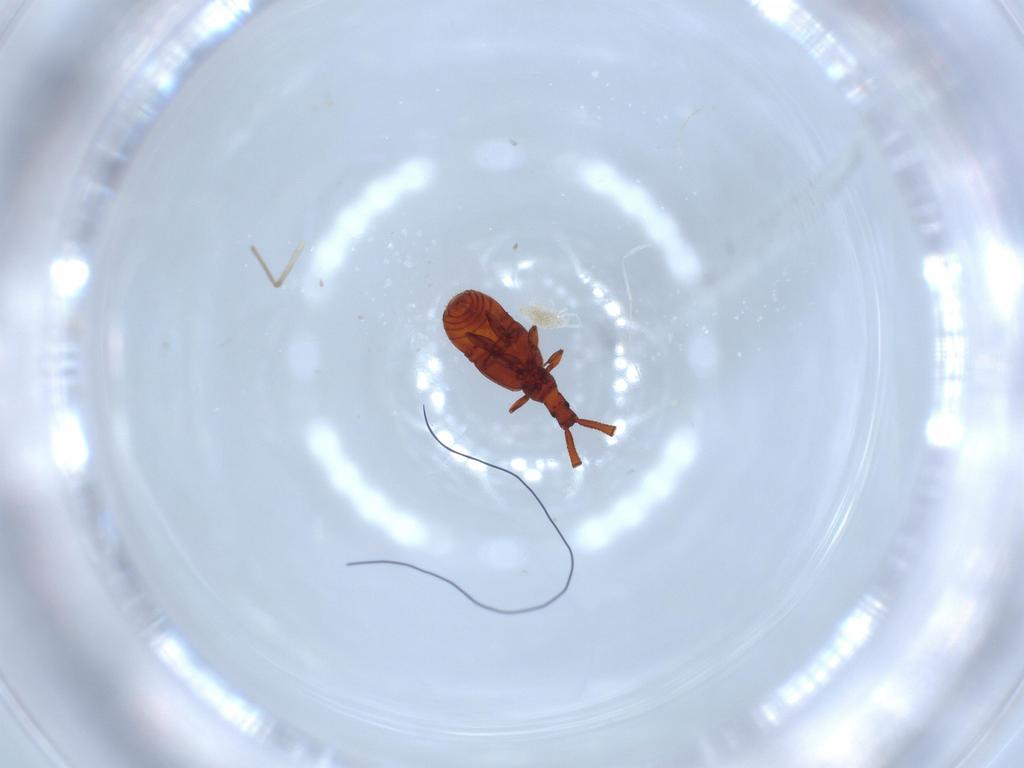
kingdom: Animalia
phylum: Arthropoda
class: Insecta
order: Coleoptera
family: Staphylinidae
